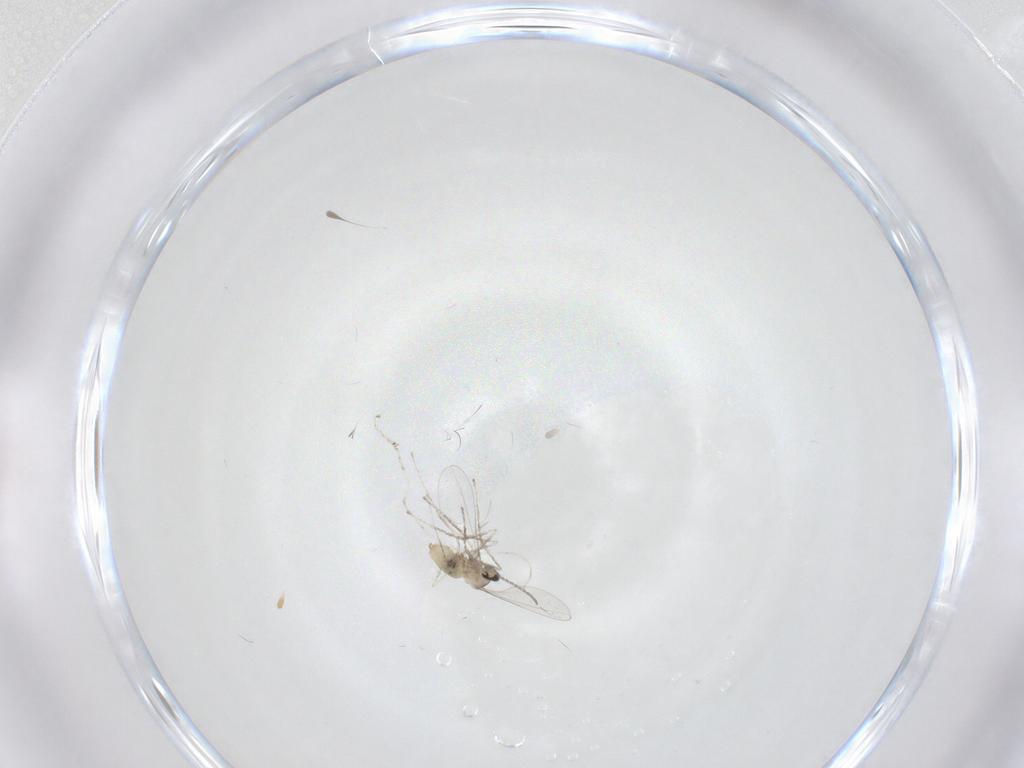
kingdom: Animalia
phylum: Arthropoda
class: Insecta
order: Diptera
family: Cecidomyiidae
